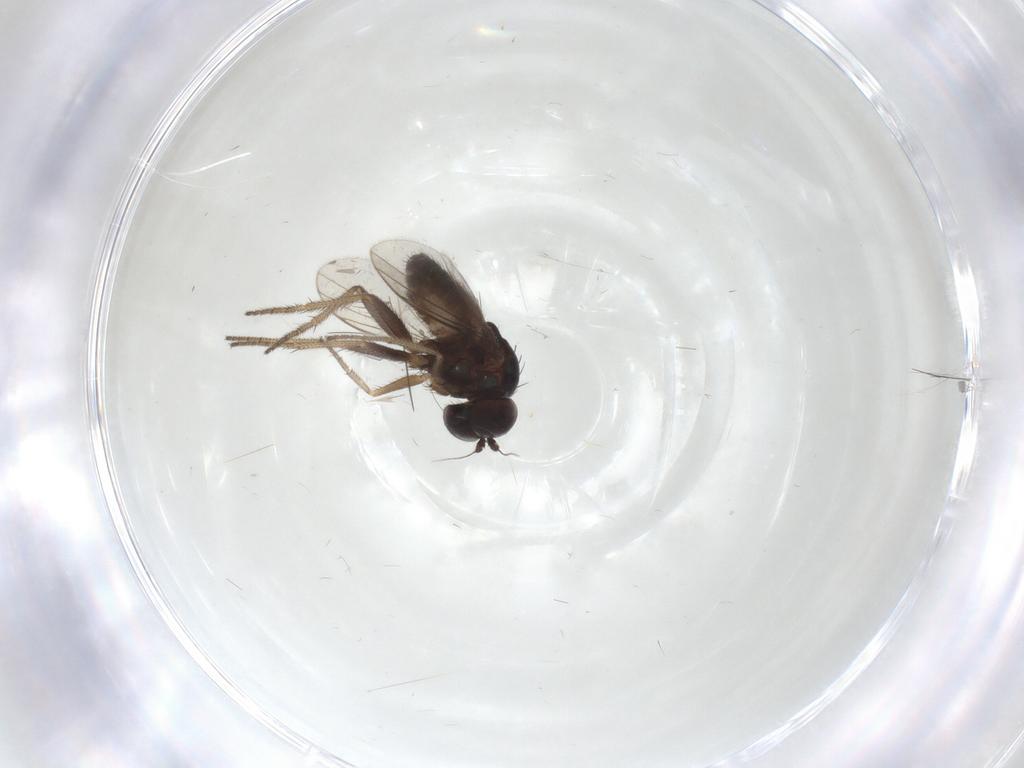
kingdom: Animalia
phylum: Arthropoda
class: Insecta
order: Diptera
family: Cecidomyiidae
